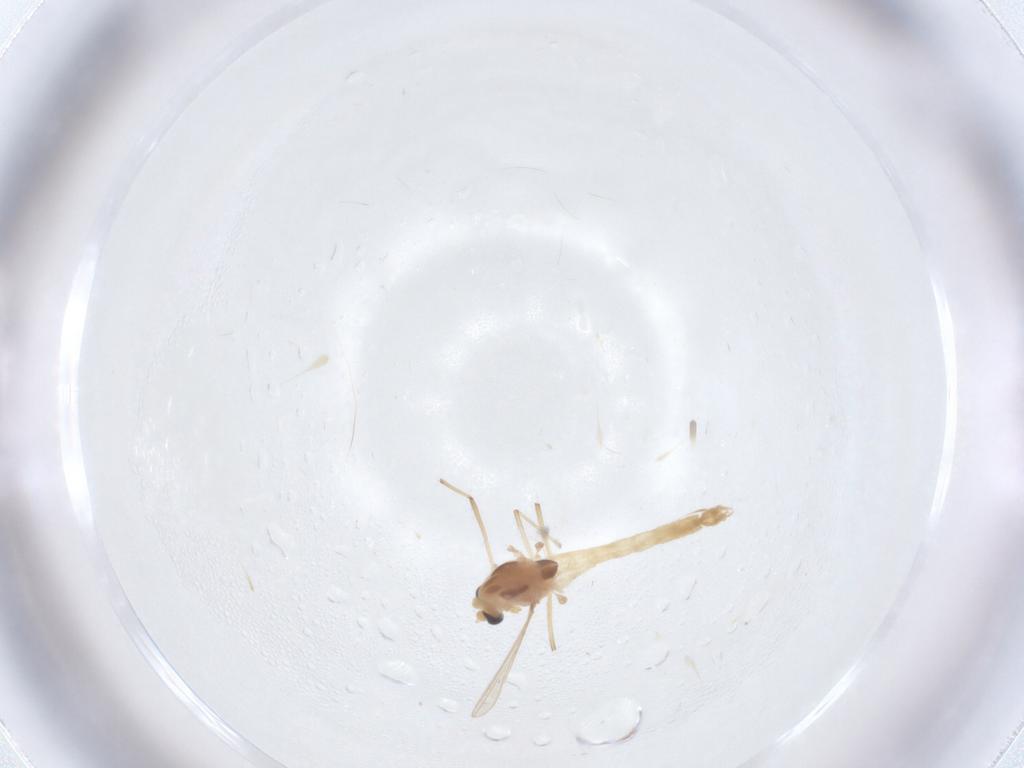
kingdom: Animalia
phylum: Arthropoda
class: Insecta
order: Diptera
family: Chironomidae
